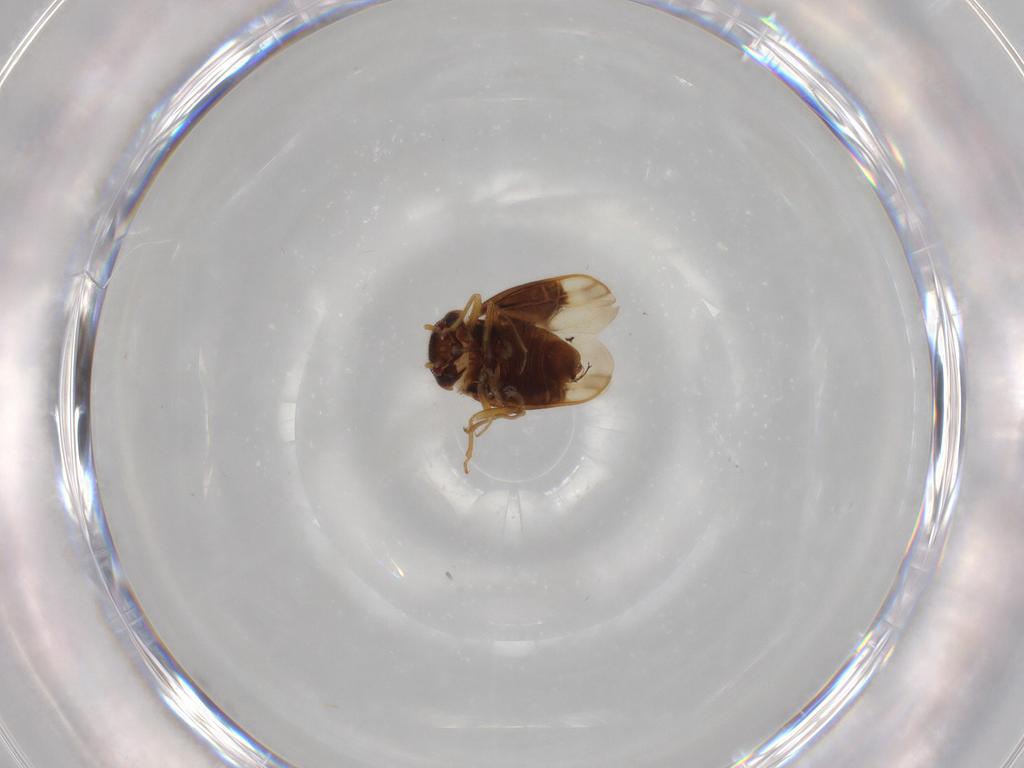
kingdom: Animalia
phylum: Arthropoda
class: Insecta
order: Hemiptera
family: Schizopteridae
